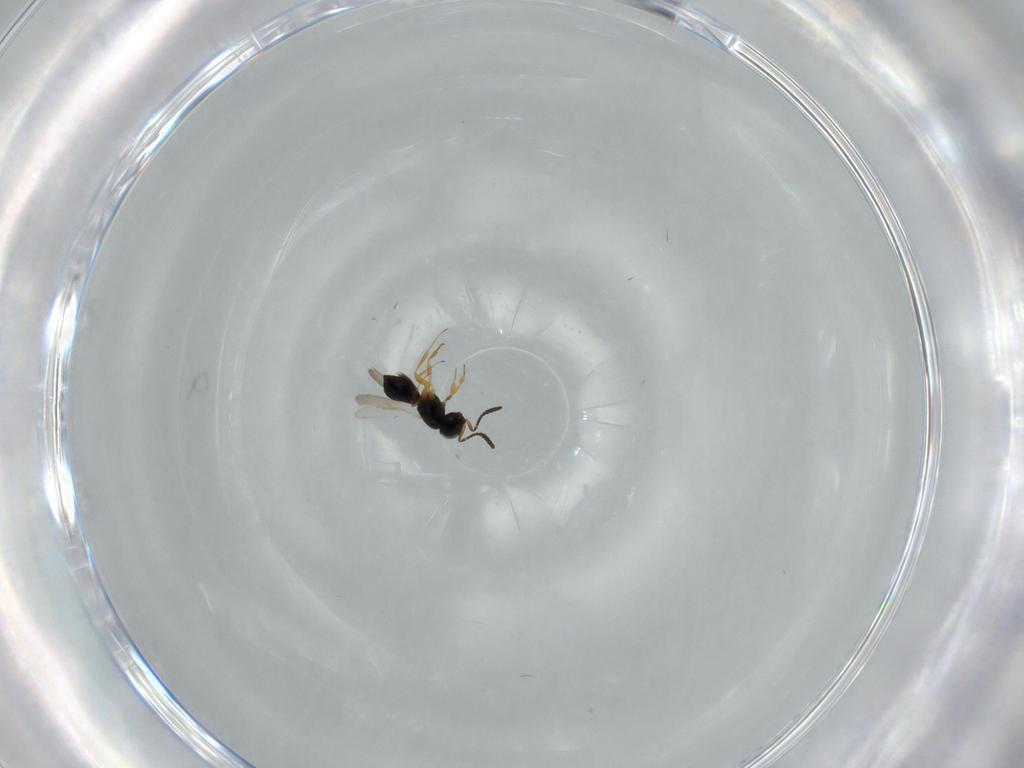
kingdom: Animalia
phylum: Arthropoda
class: Insecta
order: Hymenoptera
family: Scelionidae
